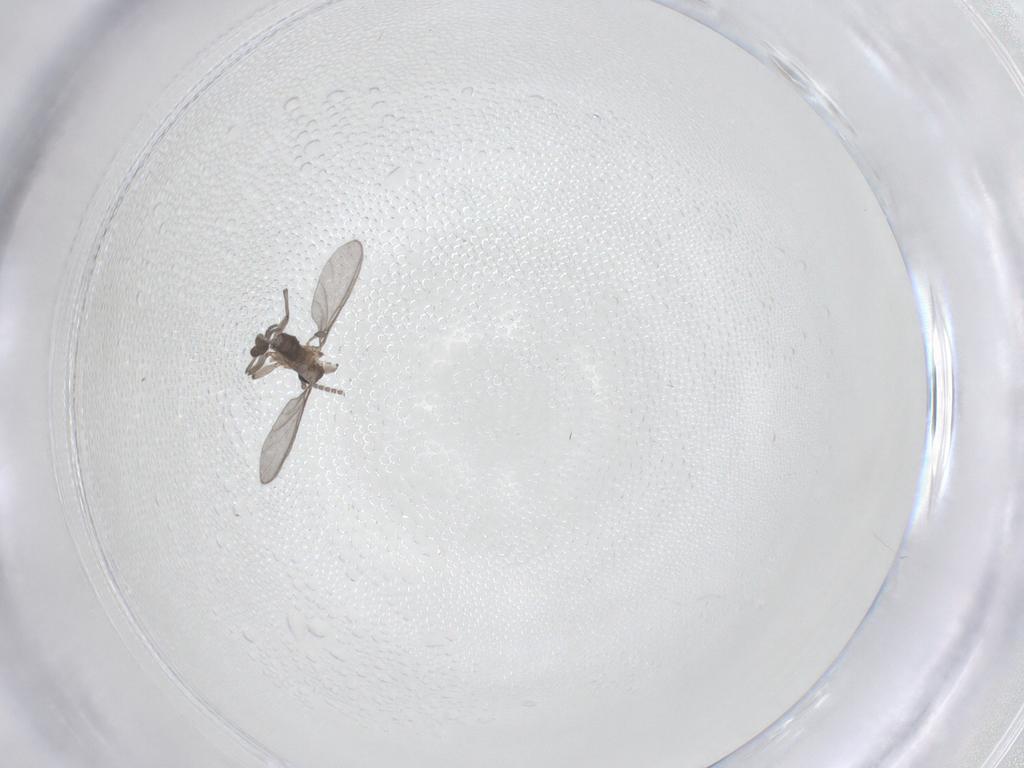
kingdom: Animalia
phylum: Arthropoda
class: Insecta
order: Diptera
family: Sciaridae
